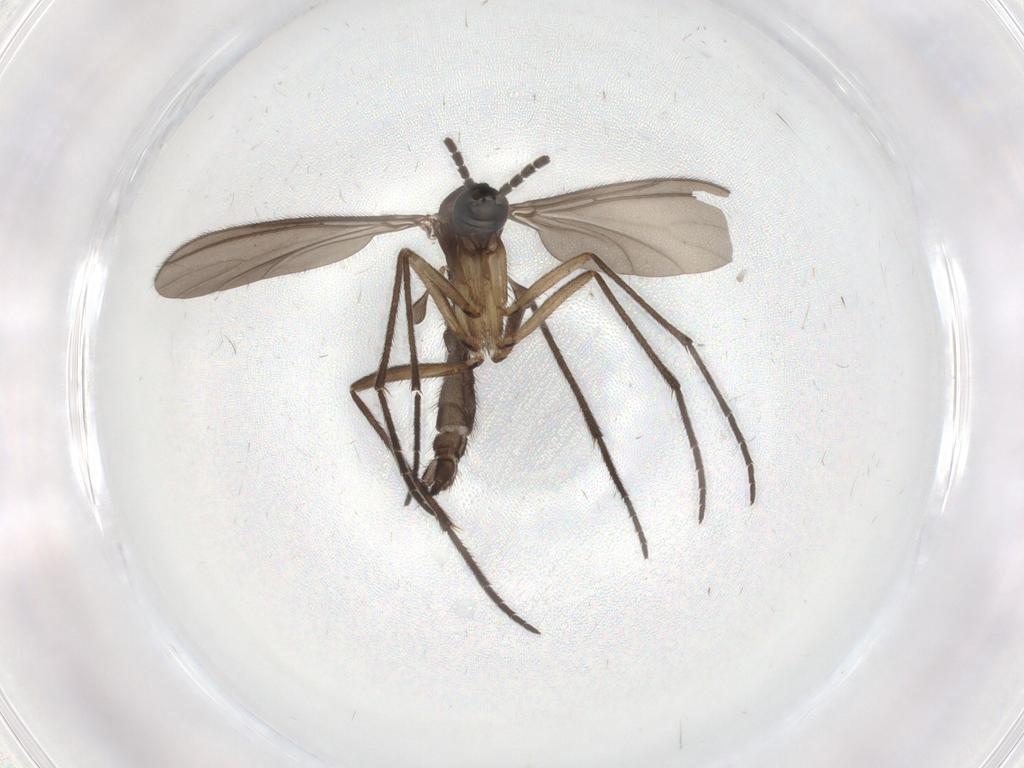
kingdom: Animalia
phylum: Arthropoda
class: Insecta
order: Diptera
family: Sciaridae
